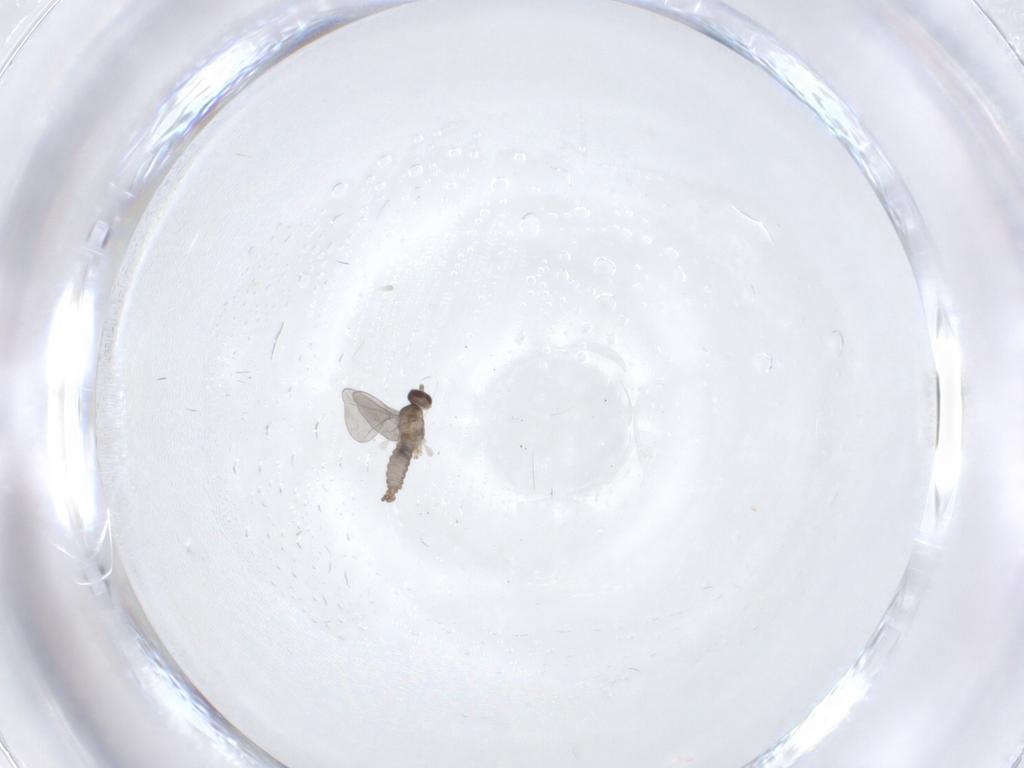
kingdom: Animalia
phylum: Arthropoda
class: Insecta
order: Diptera
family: Cecidomyiidae
